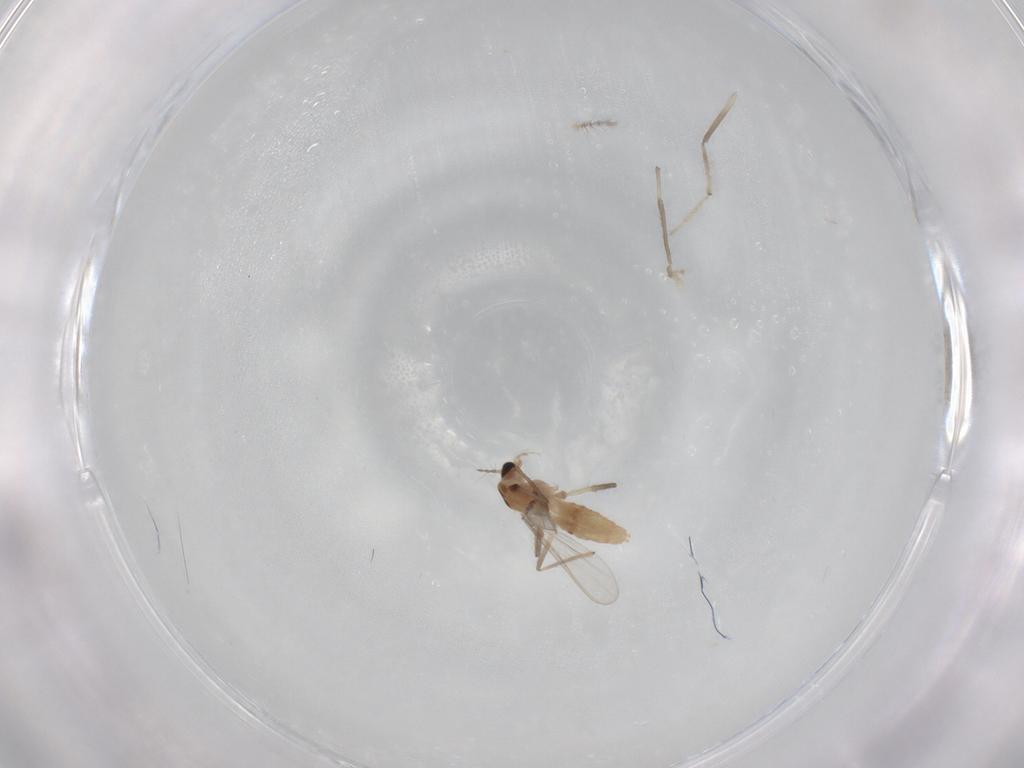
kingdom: Animalia
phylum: Arthropoda
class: Insecta
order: Diptera
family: Chironomidae
